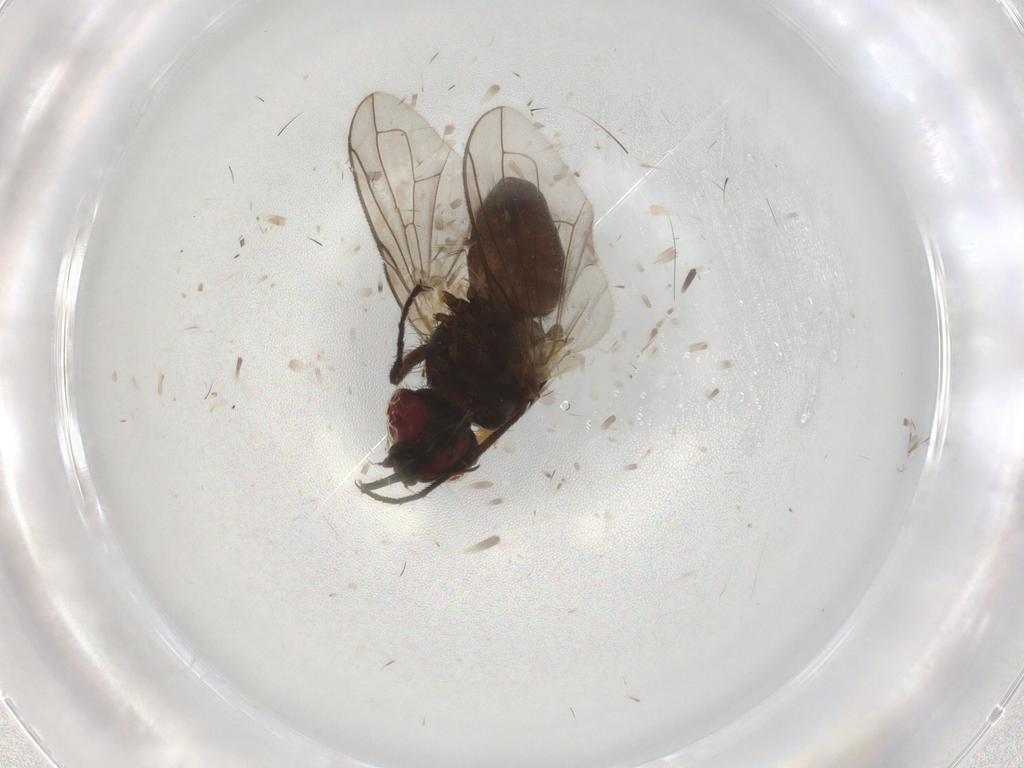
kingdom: Animalia
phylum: Arthropoda
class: Insecta
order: Diptera
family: Tachinidae
